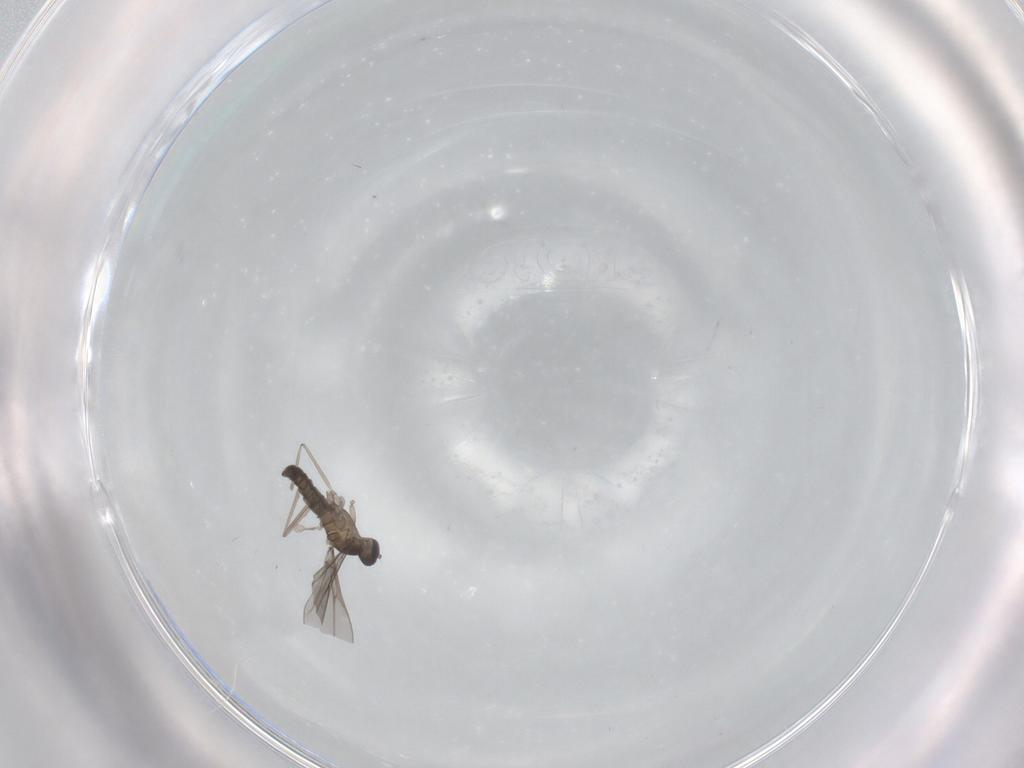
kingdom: Animalia
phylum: Arthropoda
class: Insecta
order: Diptera
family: Cecidomyiidae
